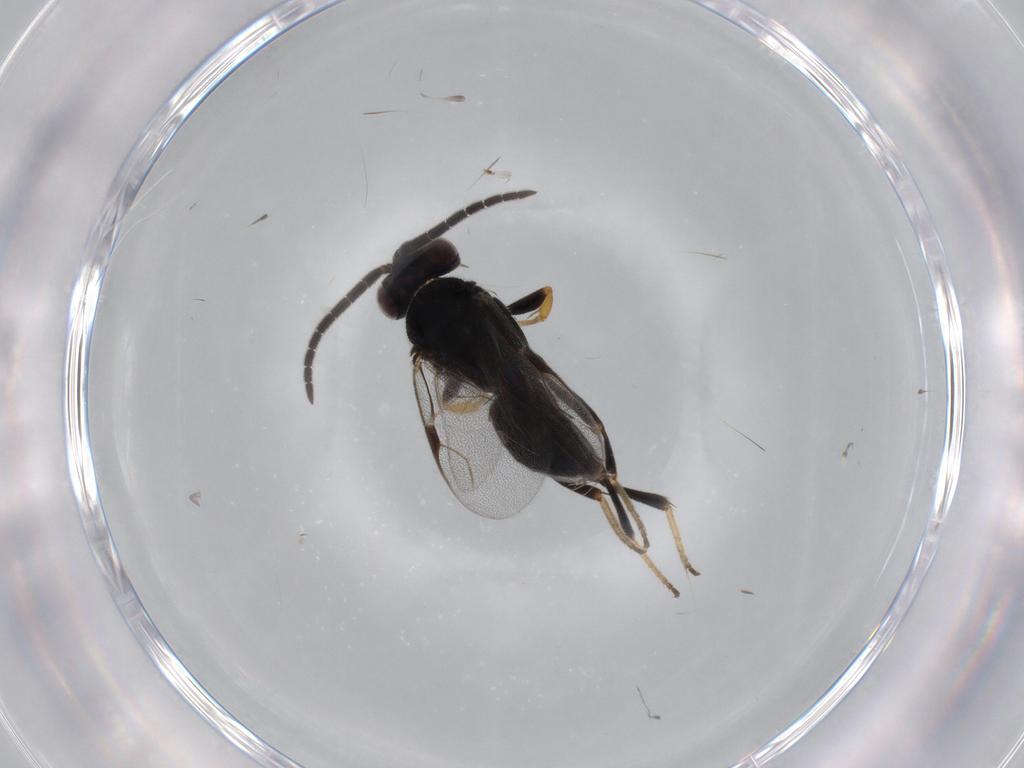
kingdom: Animalia
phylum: Arthropoda
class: Insecta
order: Hymenoptera
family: Dryinidae
